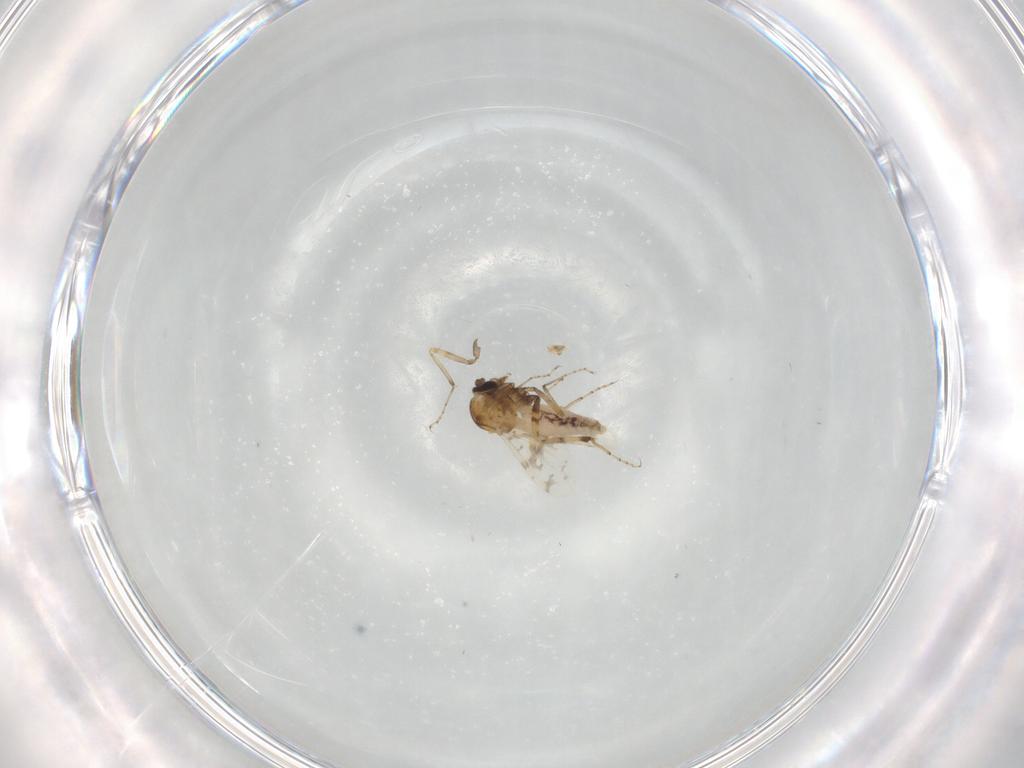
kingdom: Animalia
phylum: Arthropoda
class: Insecta
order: Diptera
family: Ceratopogonidae
